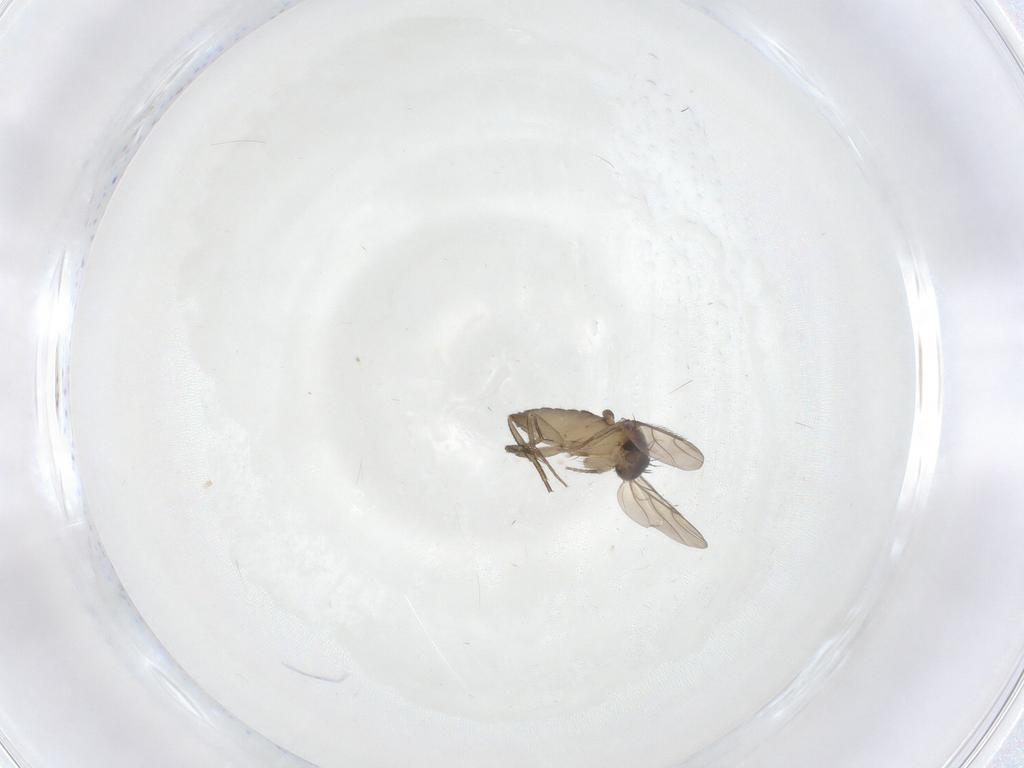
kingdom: Animalia
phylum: Arthropoda
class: Insecta
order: Diptera
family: Phoridae
